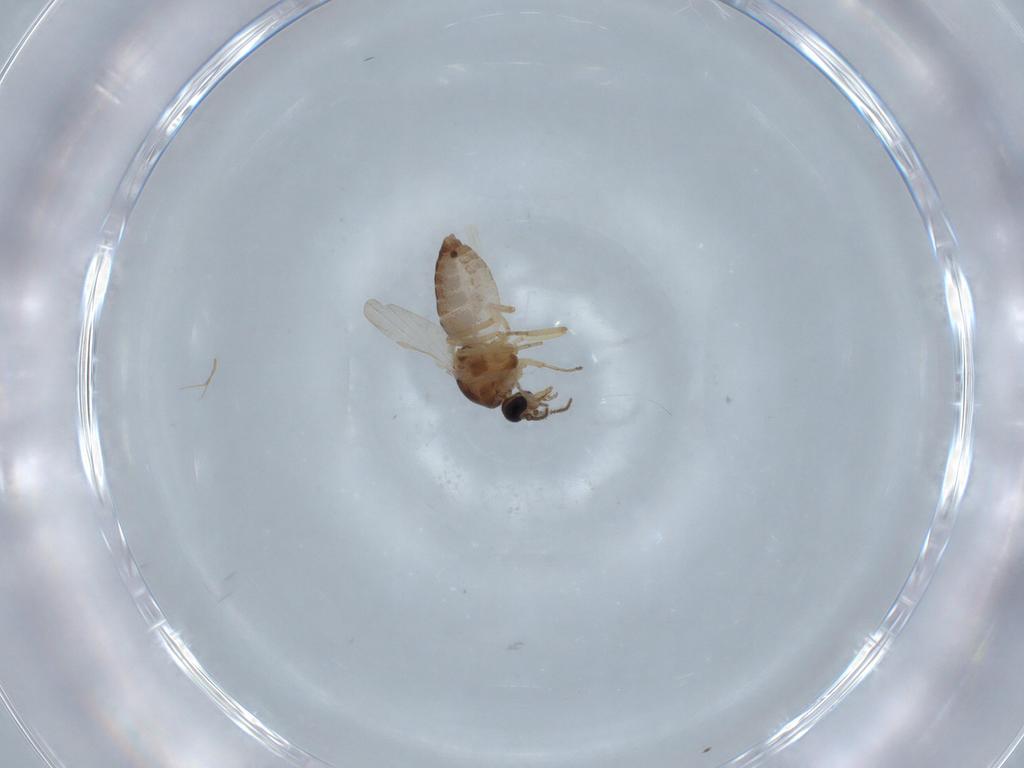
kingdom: Animalia
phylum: Arthropoda
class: Insecta
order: Diptera
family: Ceratopogonidae
